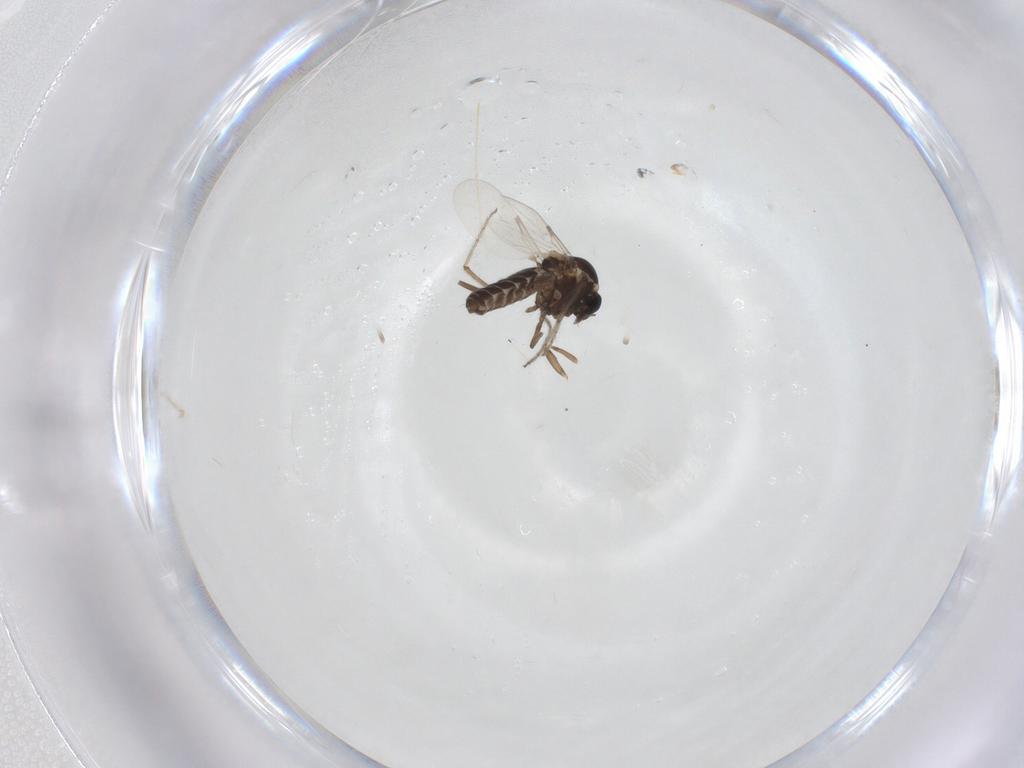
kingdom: Animalia
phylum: Arthropoda
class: Insecta
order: Diptera
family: Ceratopogonidae
